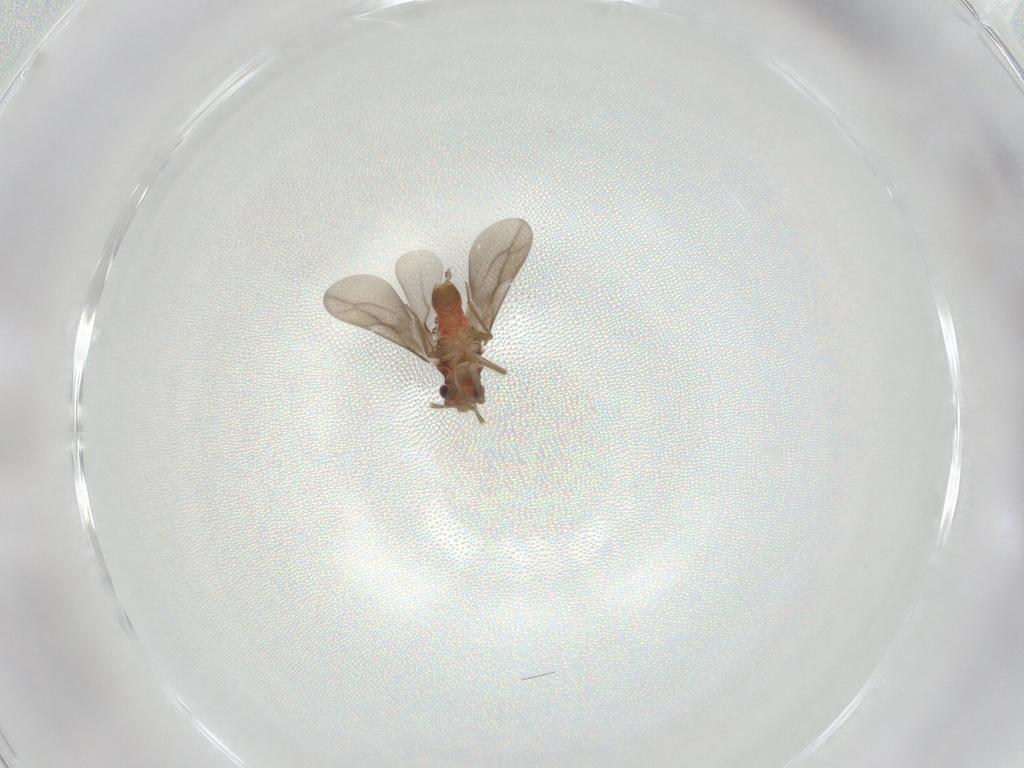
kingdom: Animalia
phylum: Arthropoda
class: Insecta
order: Hemiptera
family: Ceratocombidae
